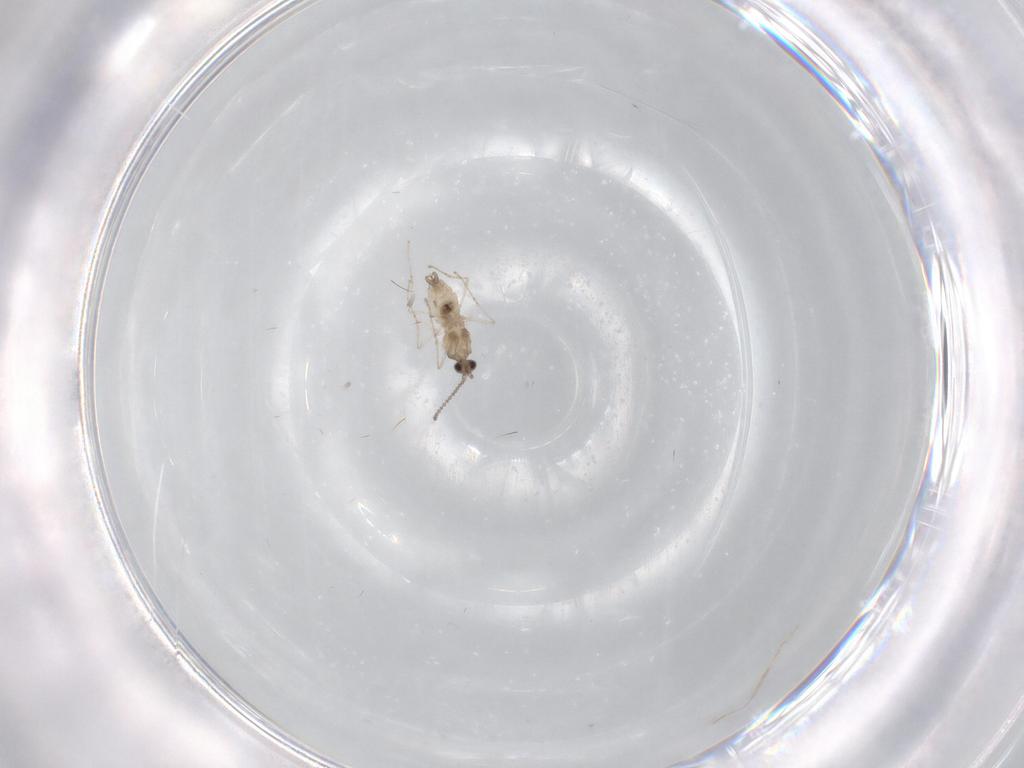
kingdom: Animalia
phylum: Arthropoda
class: Insecta
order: Diptera
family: Cecidomyiidae
